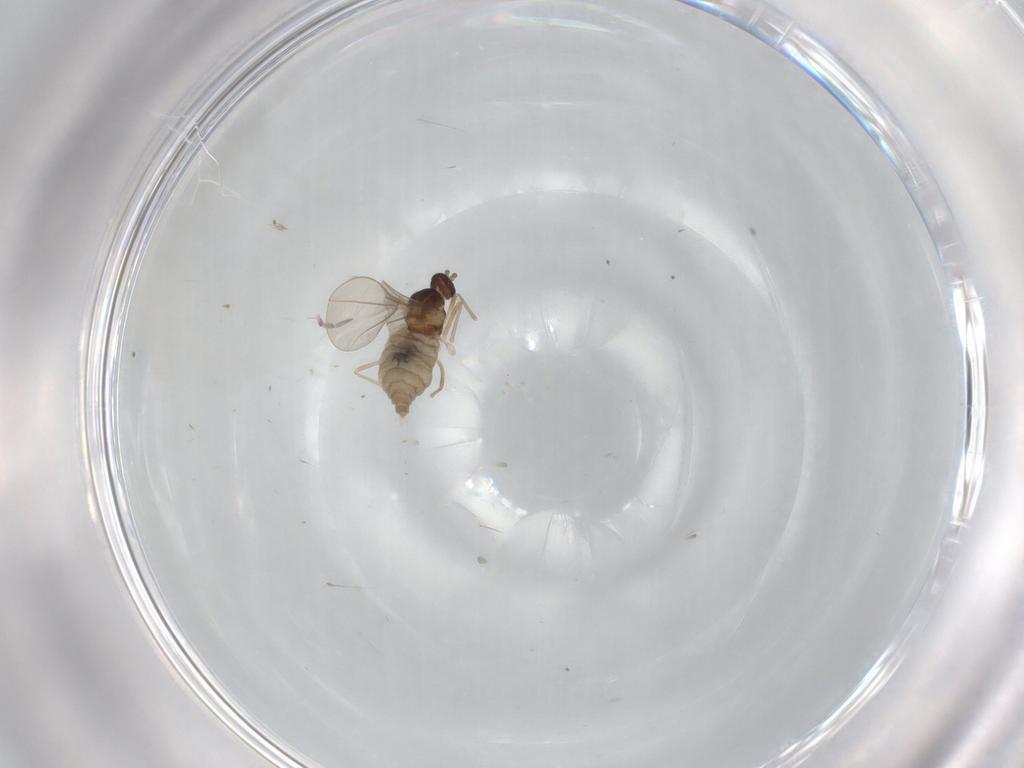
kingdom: Animalia
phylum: Arthropoda
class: Insecta
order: Diptera
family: Cecidomyiidae
